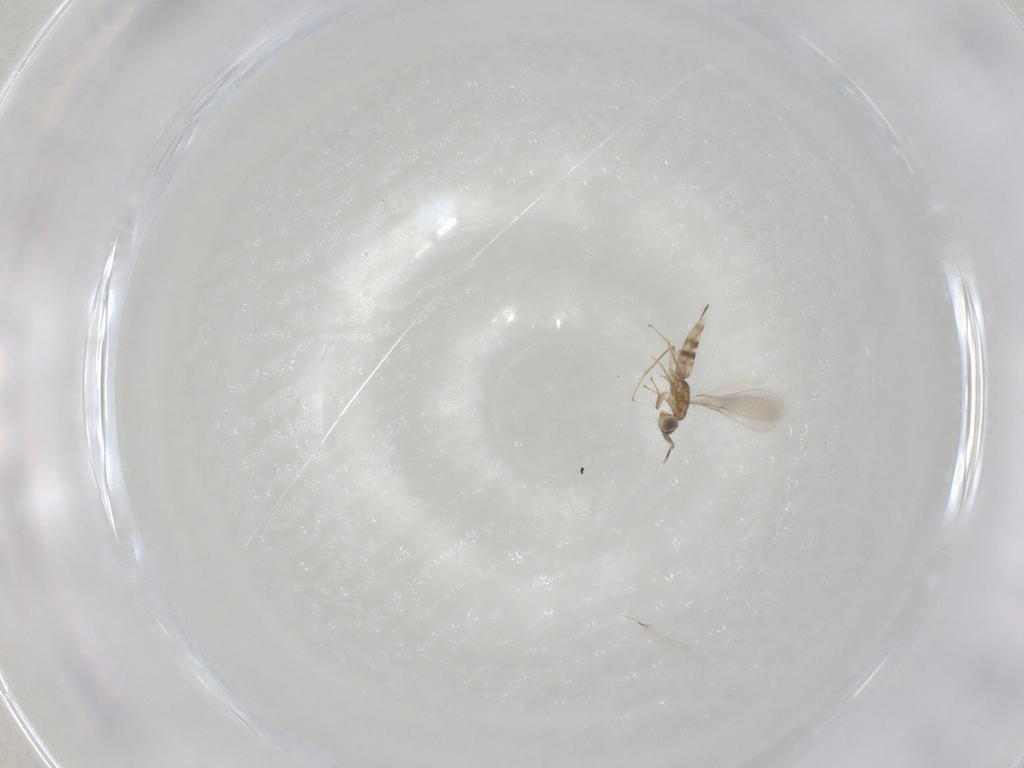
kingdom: Animalia
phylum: Arthropoda
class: Insecta
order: Hymenoptera
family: Mymaridae
